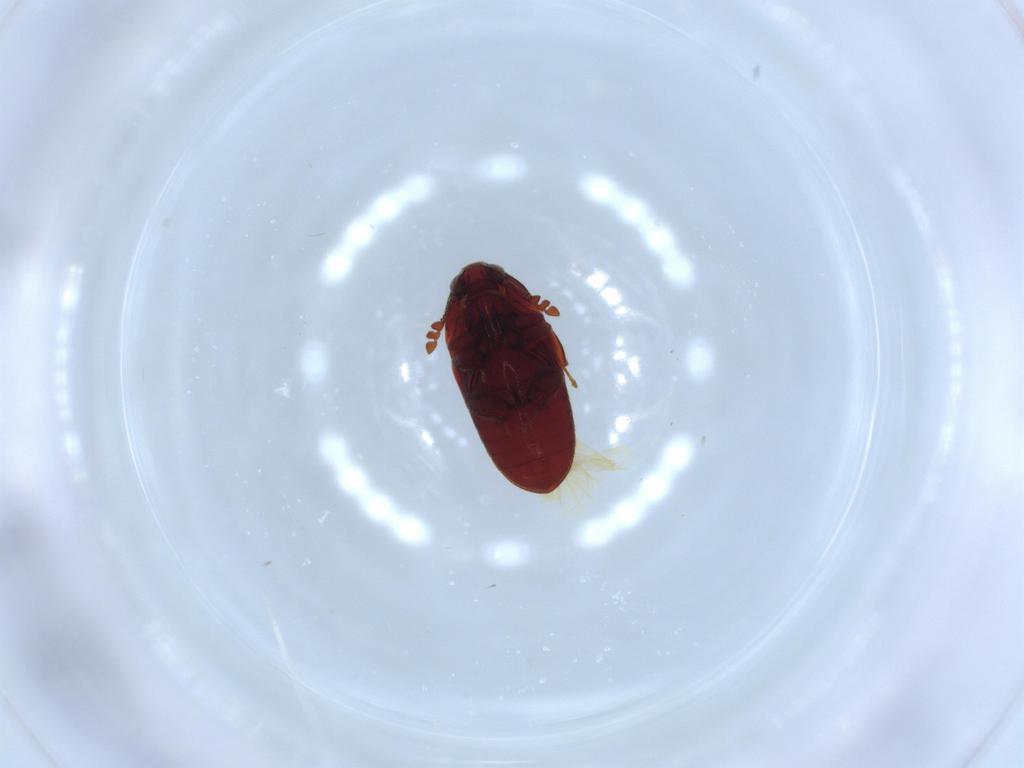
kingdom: Animalia
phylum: Arthropoda
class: Insecta
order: Coleoptera
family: Throscidae
